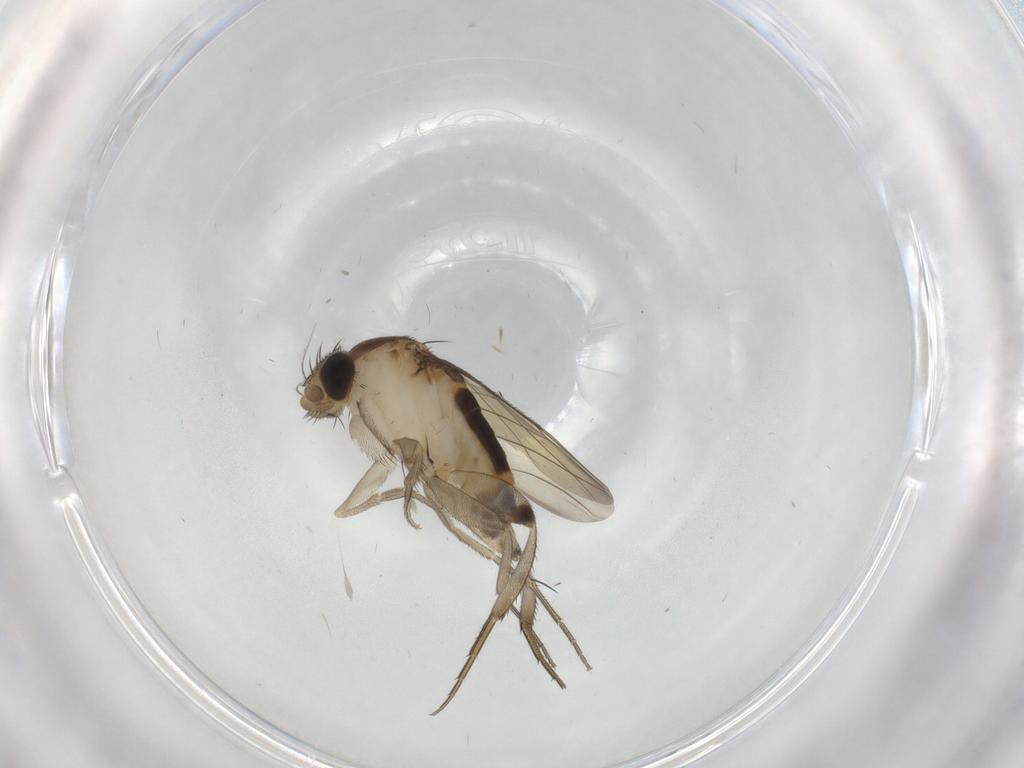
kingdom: Animalia
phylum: Arthropoda
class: Insecta
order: Diptera
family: Phoridae
